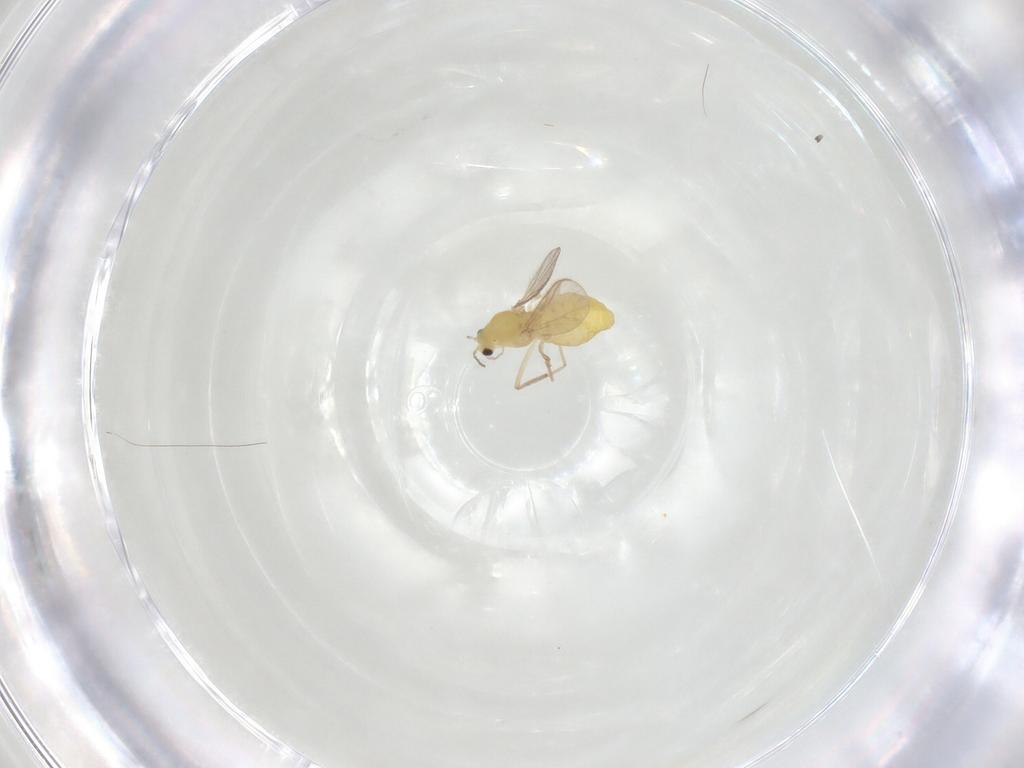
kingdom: Animalia
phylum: Arthropoda
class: Insecta
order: Diptera
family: Chironomidae
